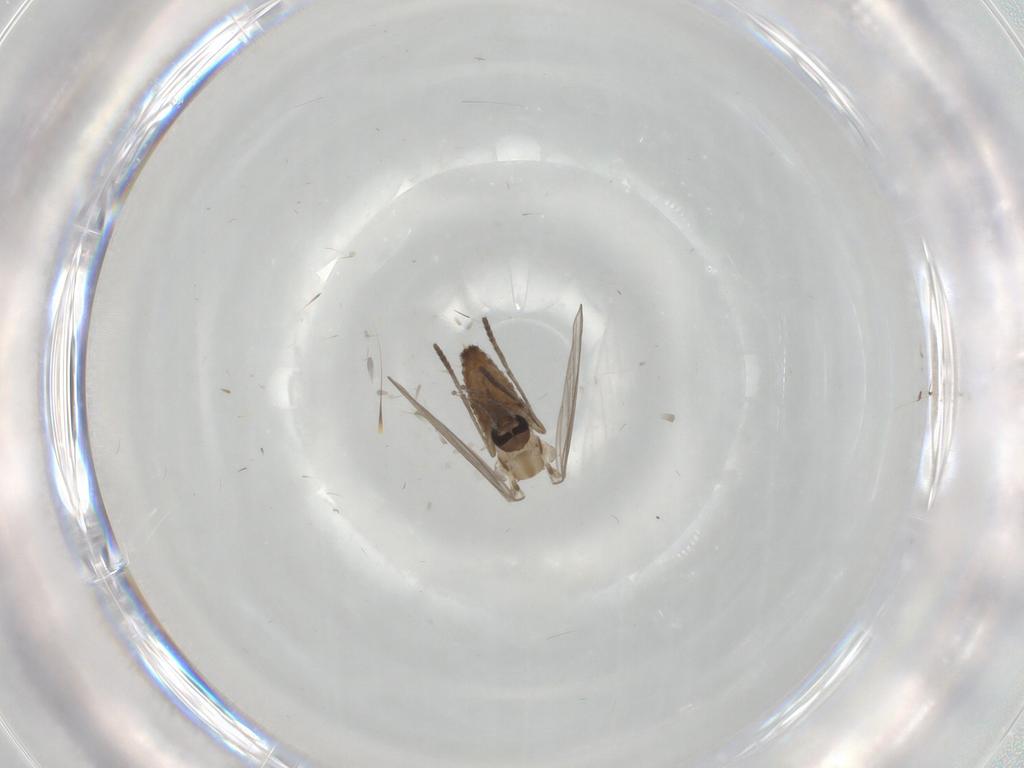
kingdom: Animalia
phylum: Arthropoda
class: Insecta
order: Diptera
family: Psychodidae
